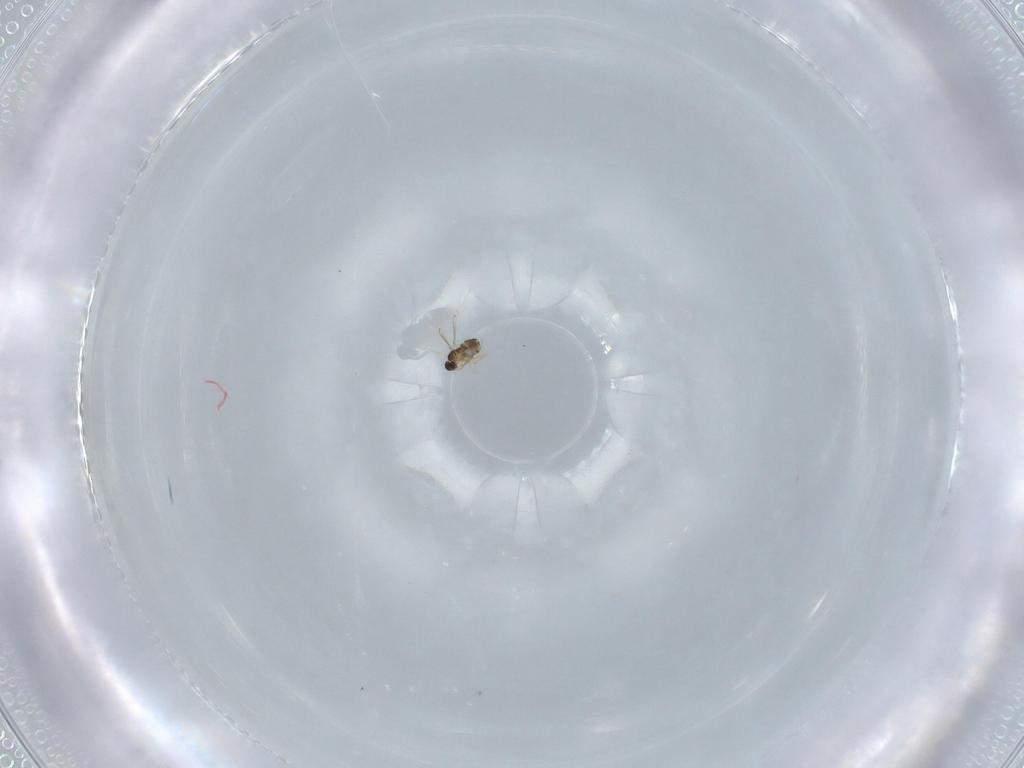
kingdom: Animalia
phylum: Arthropoda
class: Insecta
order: Hymenoptera
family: Mymaridae
